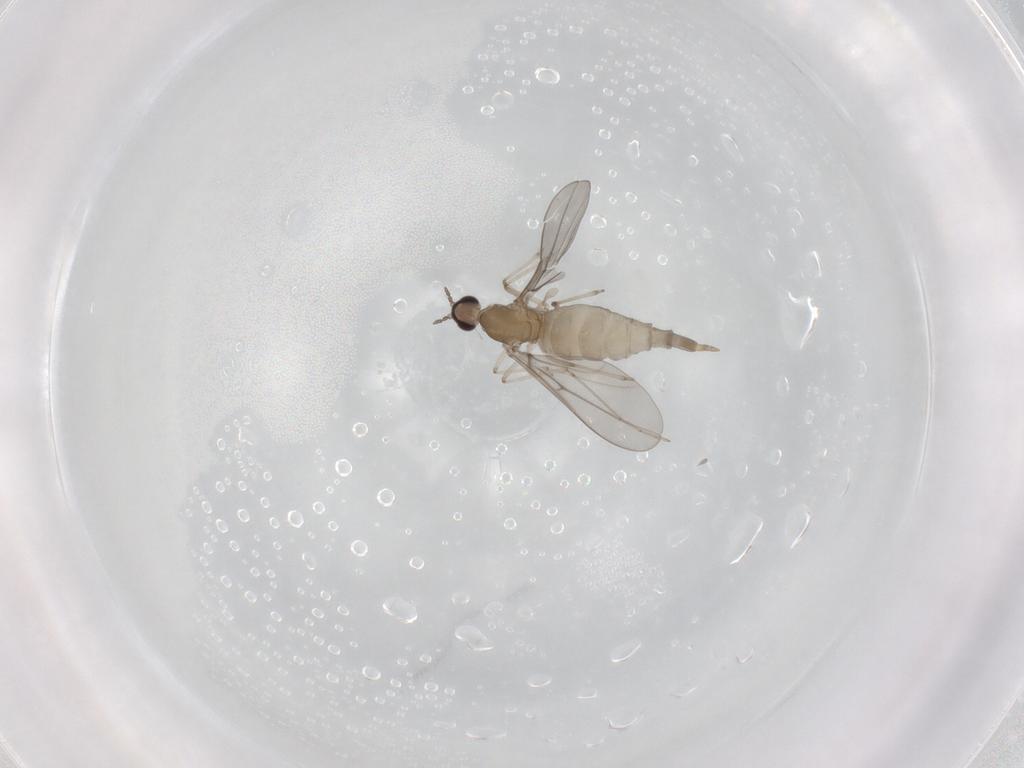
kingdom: Animalia
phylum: Arthropoda
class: Insecta
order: Diptera
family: Cecidomyiidae
